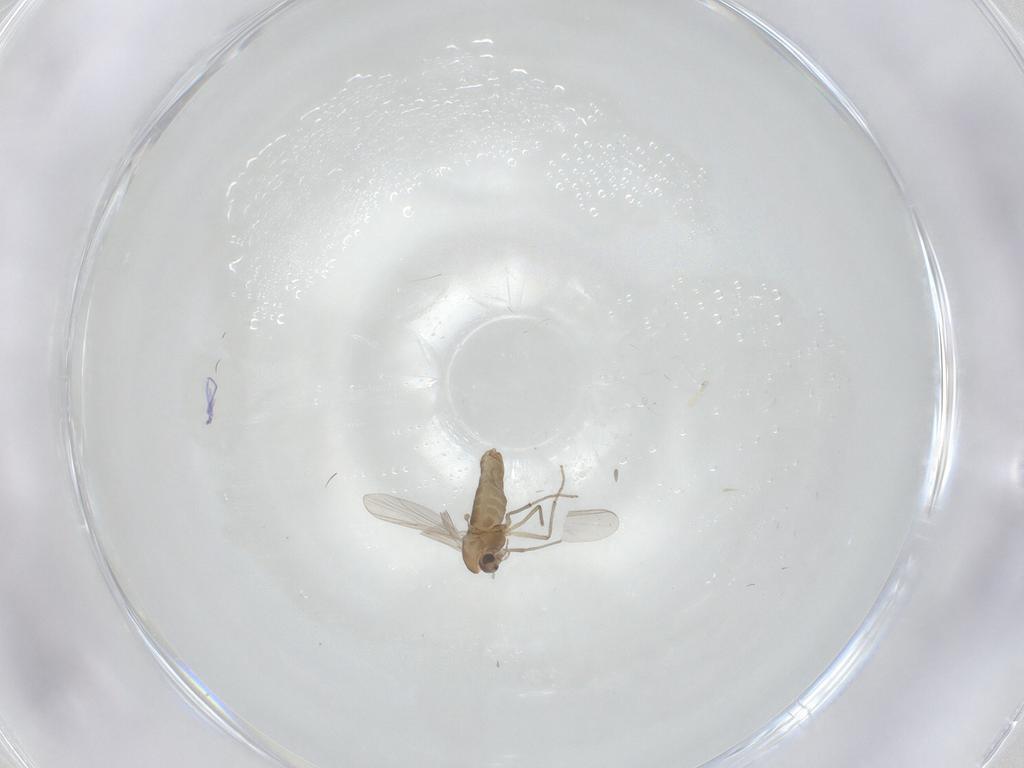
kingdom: Animalia
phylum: Arthropoda
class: Insecta
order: Diptera
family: Chironomidae
